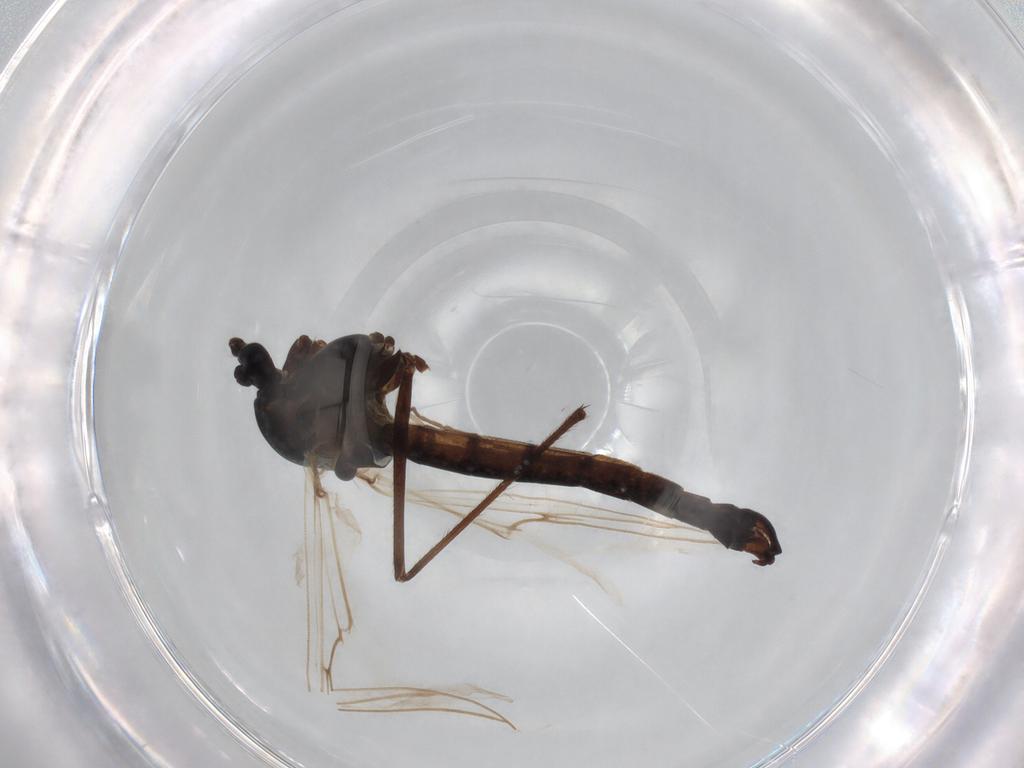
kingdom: Animalia
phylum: Arthropoda
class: Insecta
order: Diptera
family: Chironomidae
